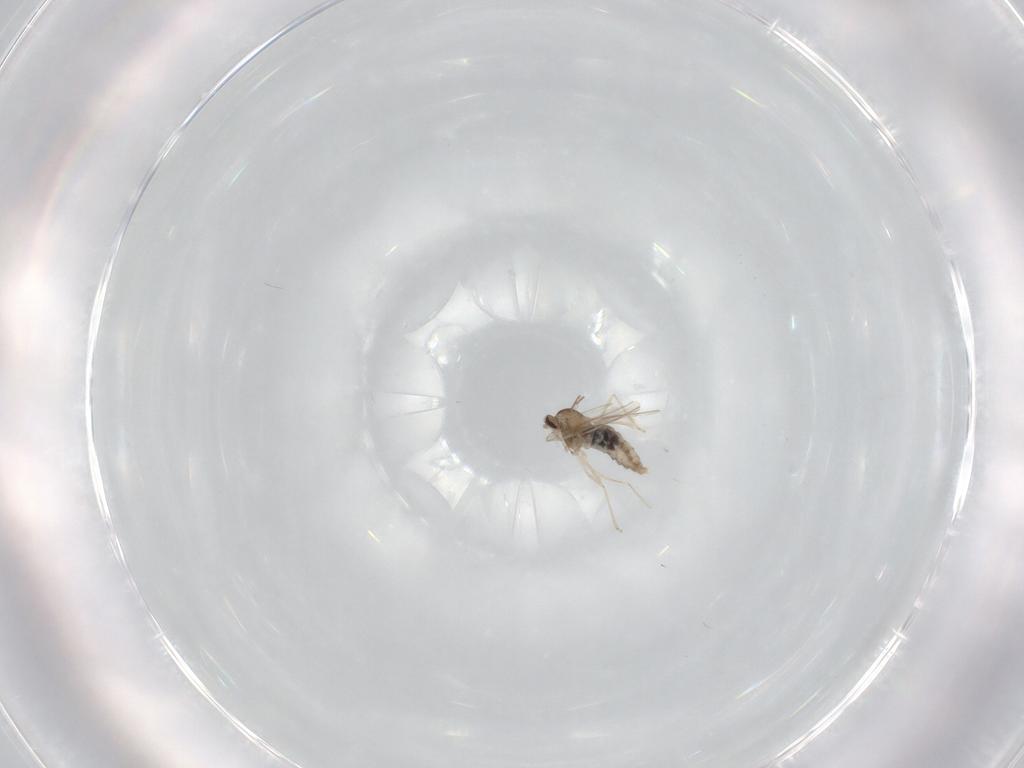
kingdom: Animalia
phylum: Arthropoda
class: Insecta
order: Diptera
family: Cecidomyiidae
